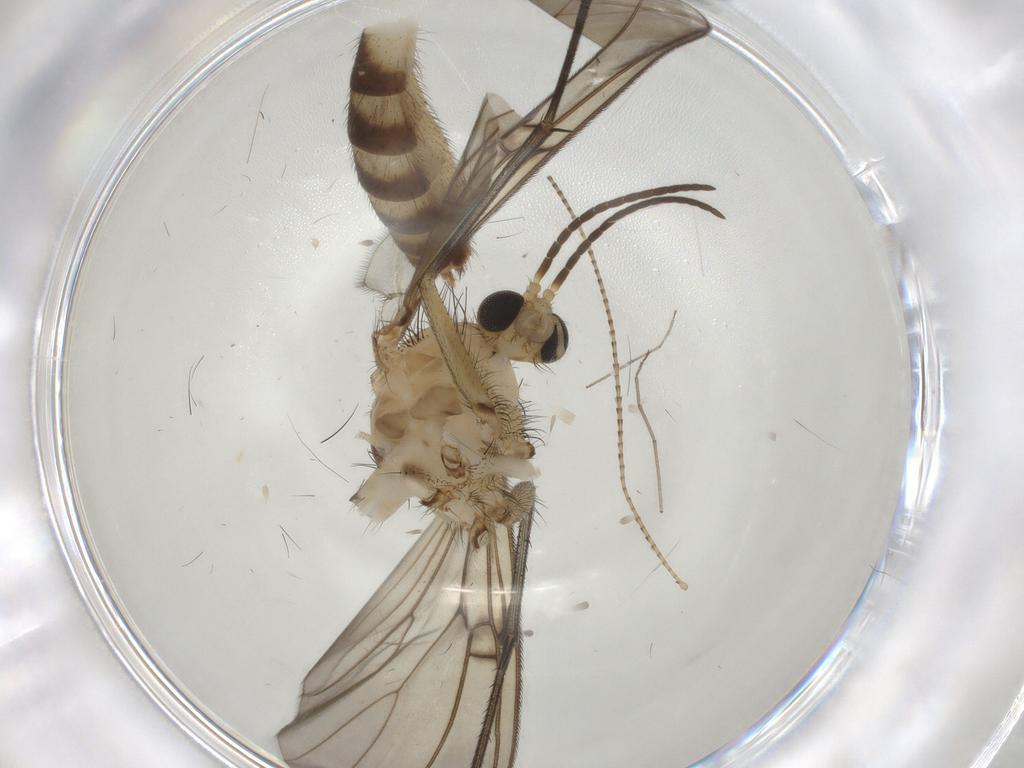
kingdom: Animalia
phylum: Arthropoda
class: Insecta
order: Diptera
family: Mycetophilidae
